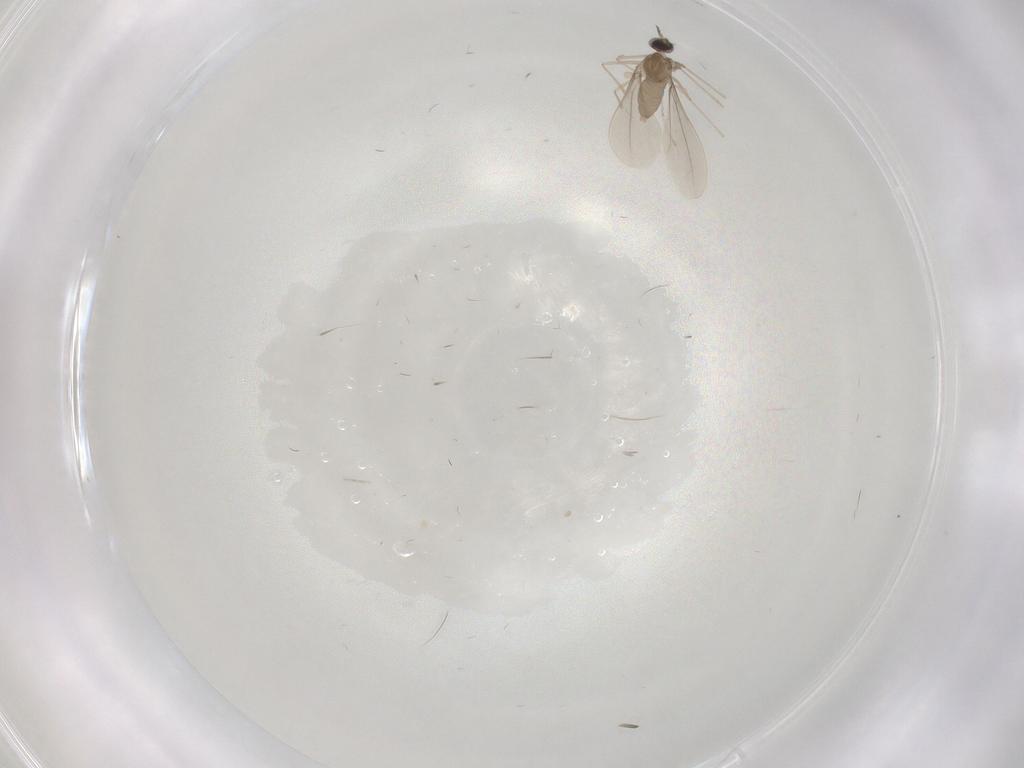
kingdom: Animalia
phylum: Arthropoda
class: Insecta
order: Diptera
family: Cecidomyiidae
